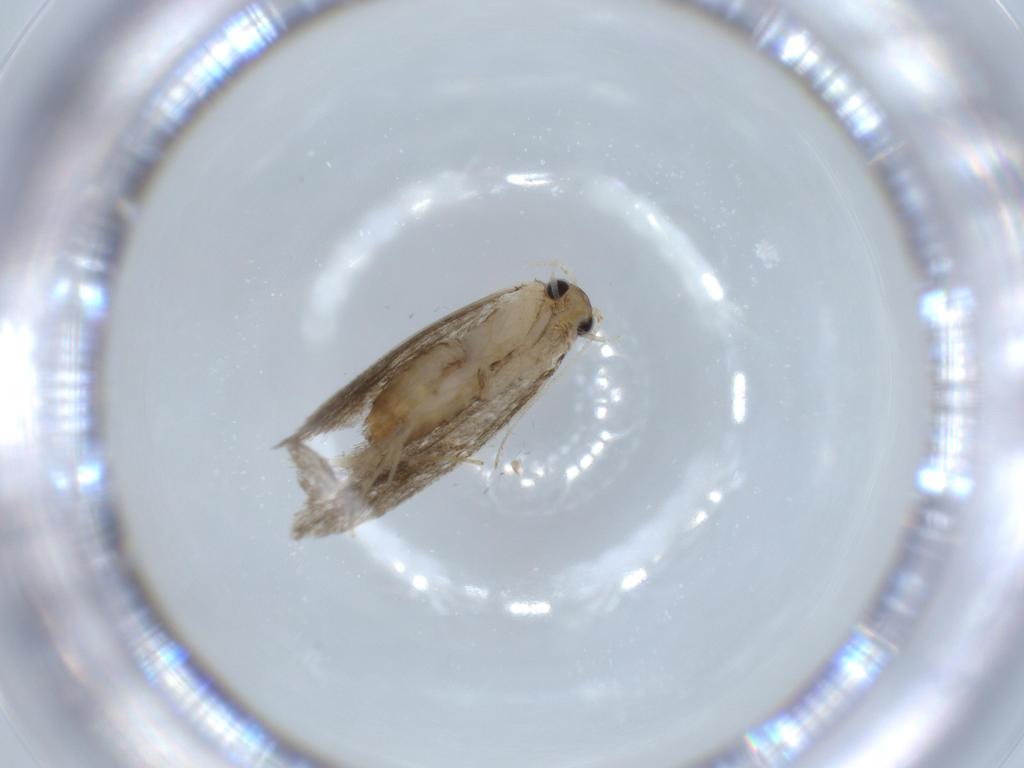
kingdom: Animalia
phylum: Arthropoda
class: Insecta
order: Lepidoptera
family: Tineidae
